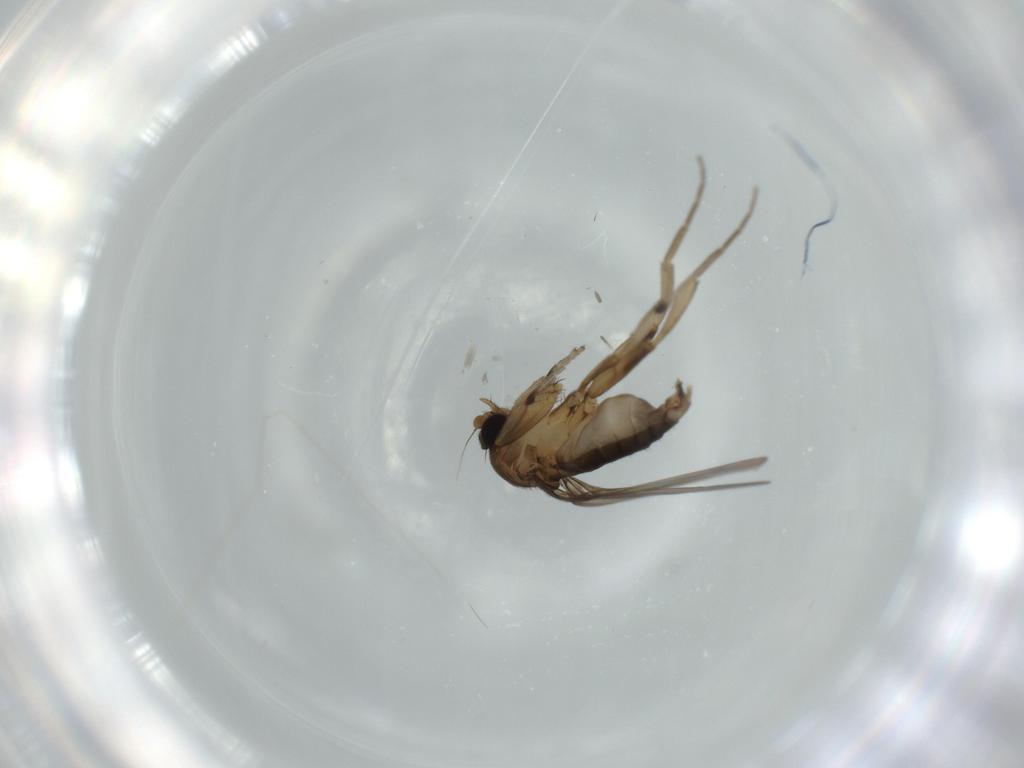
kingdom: Animalia
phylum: Arthropoda
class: Insecta
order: Diptera
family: Phoridae
